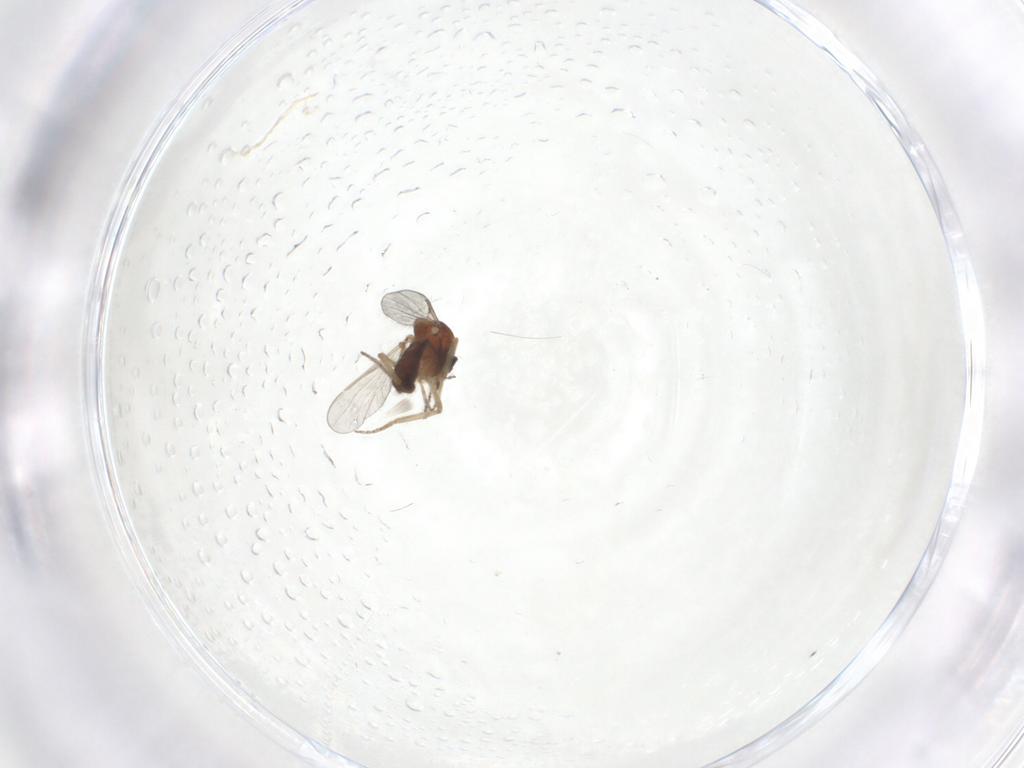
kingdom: Animalia
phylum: Arthropoda
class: Insecta
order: Diptera
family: Ceratopogonidae
